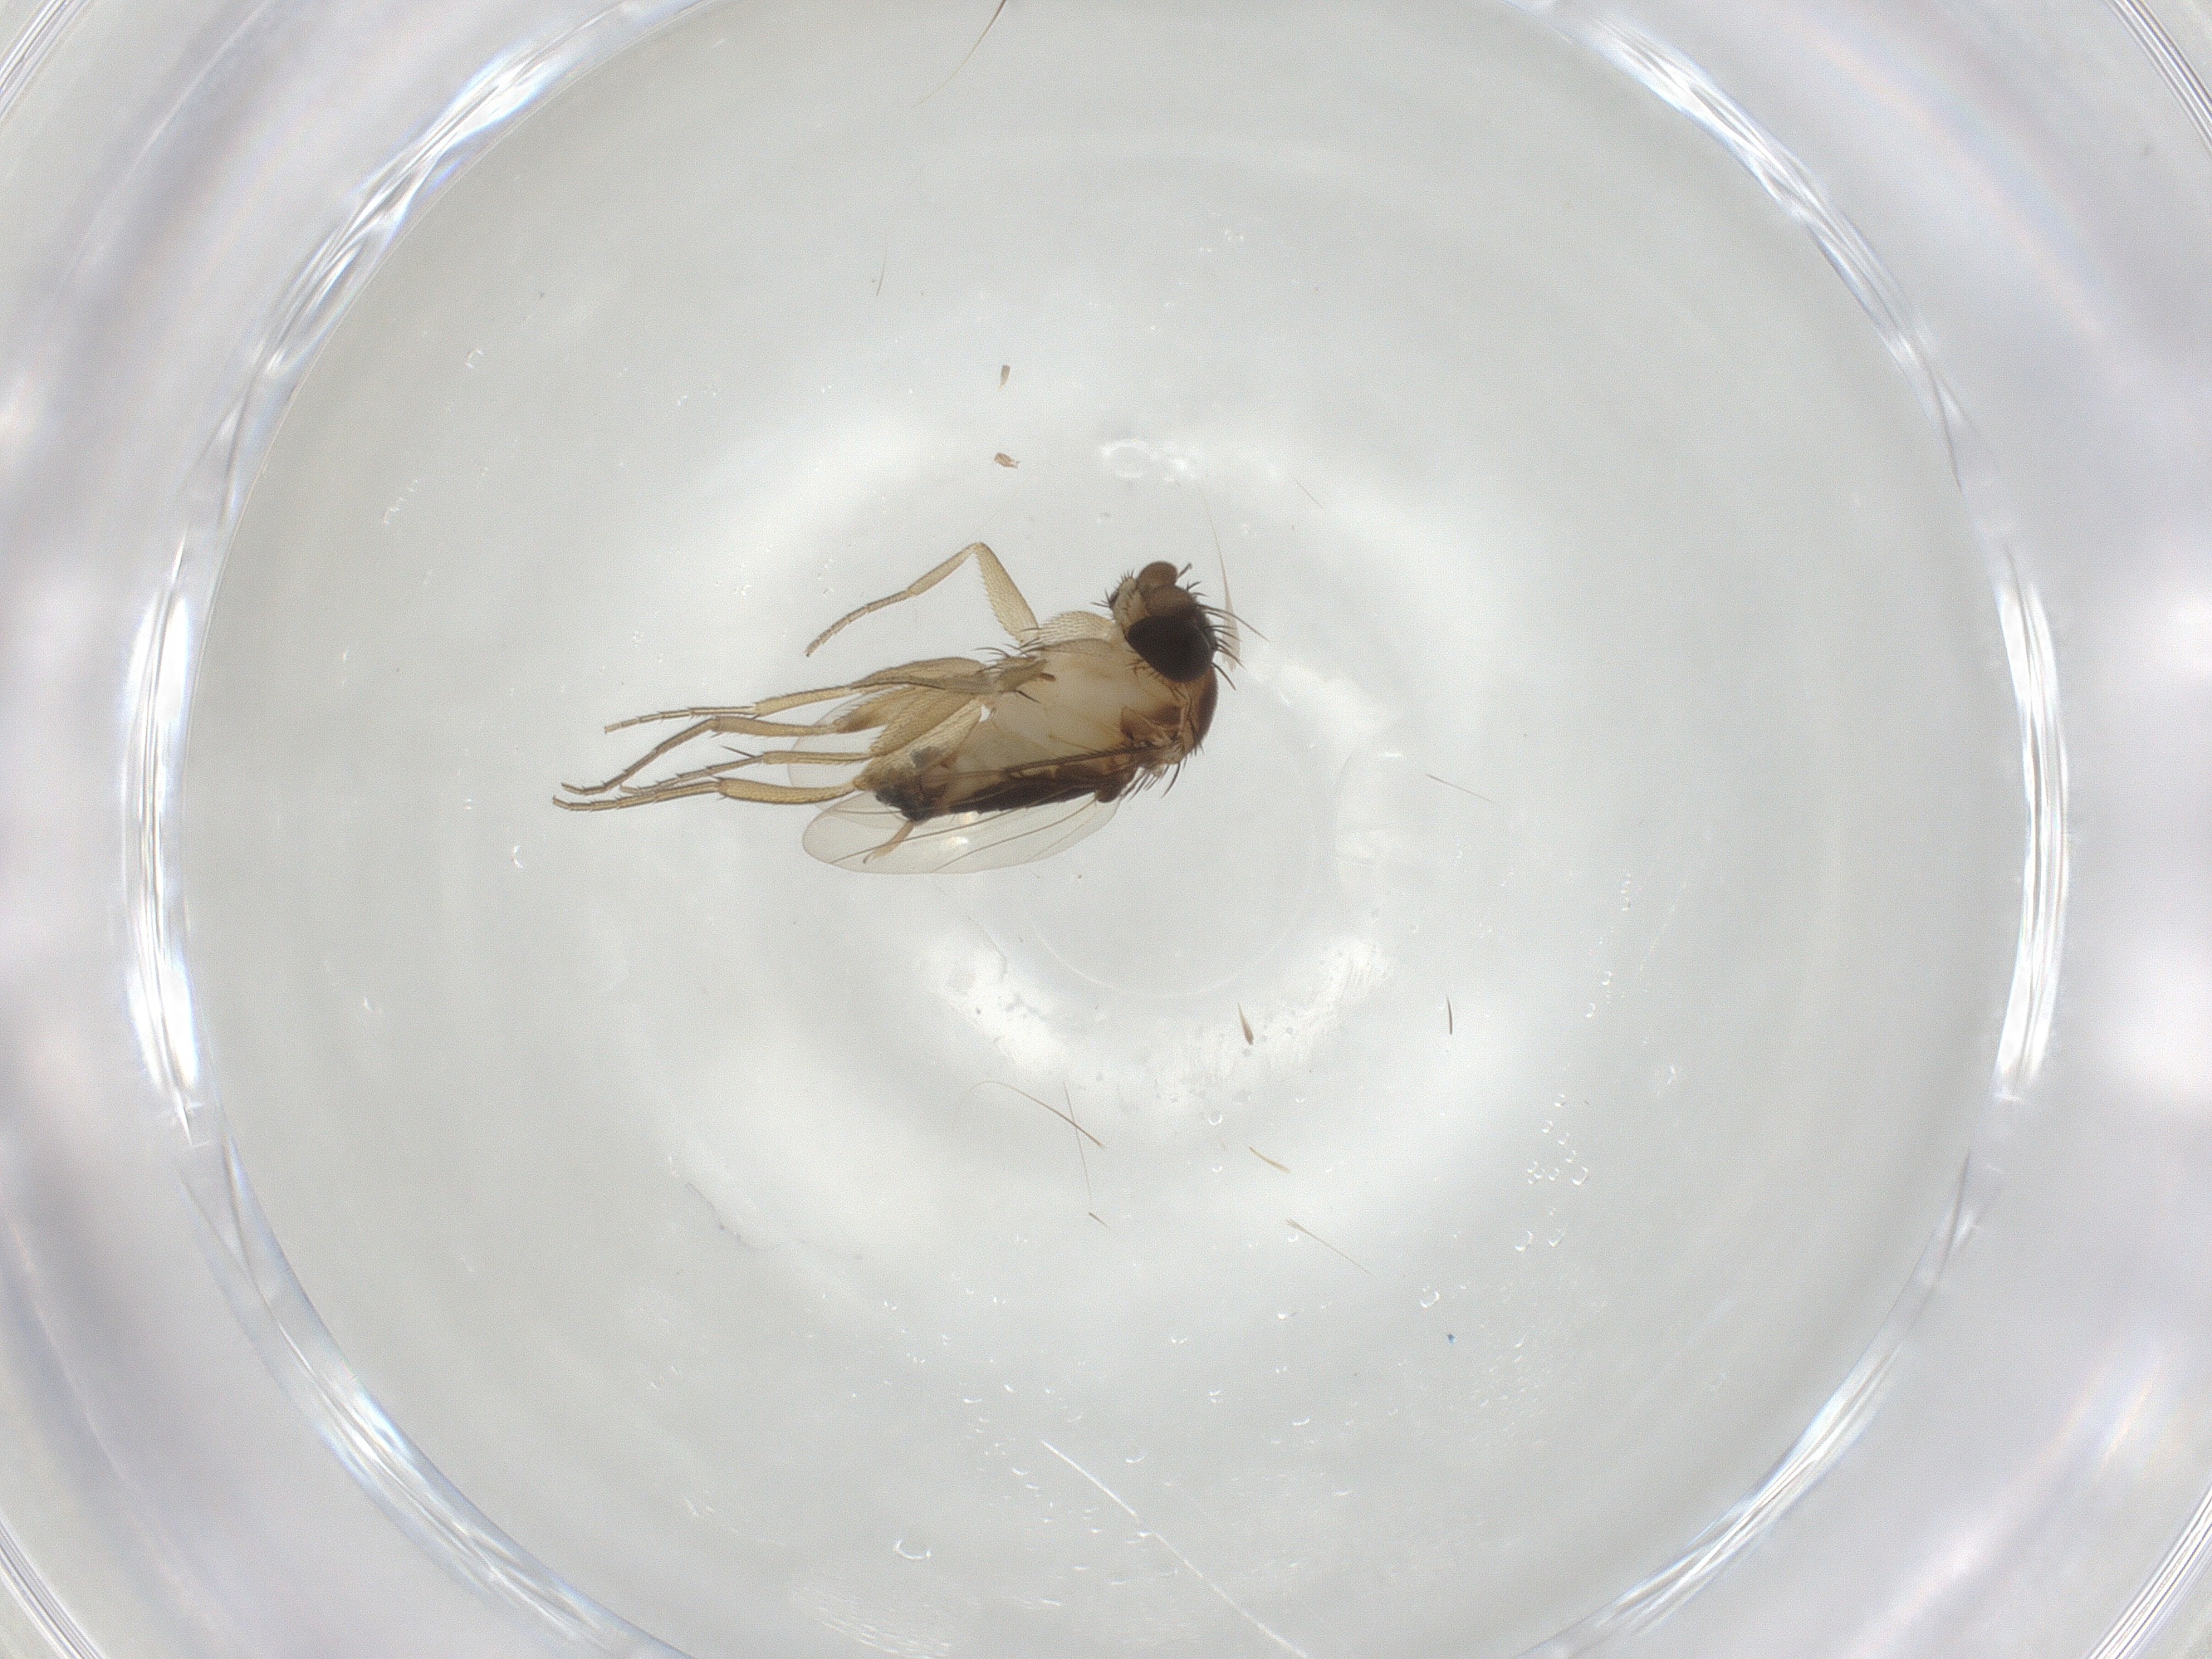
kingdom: Animalia
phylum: Arthropoda
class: Insecta
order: Diptera
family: Phoridae
